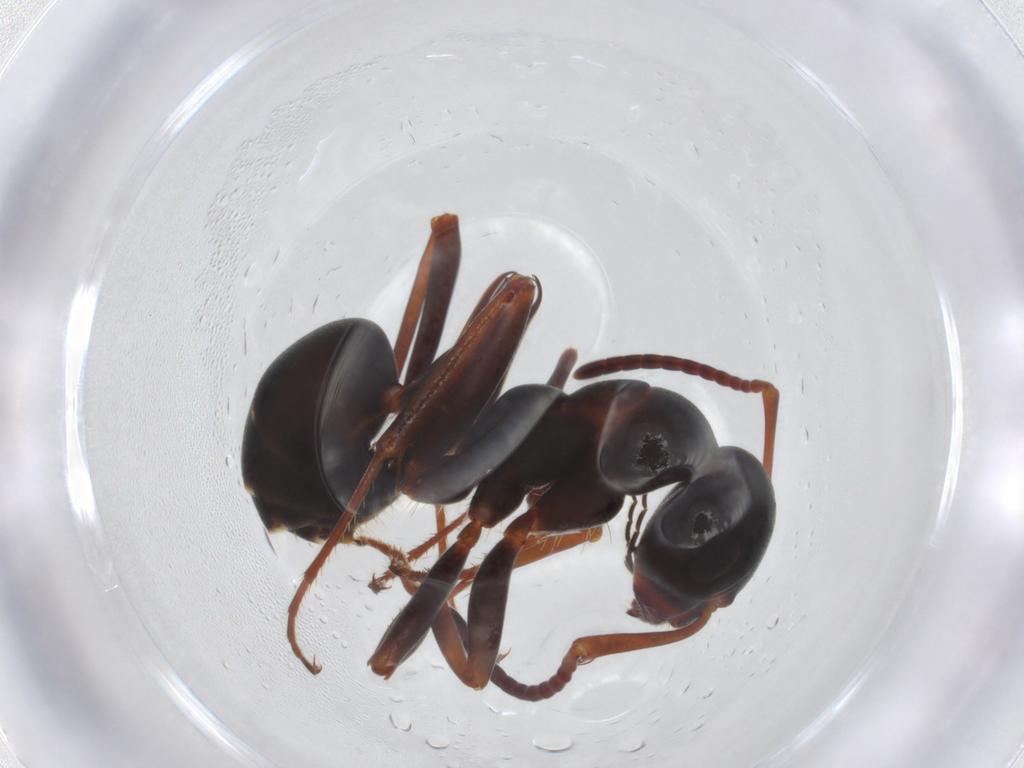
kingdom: Animalia
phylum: Arthropoda
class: Insecta
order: Hymenoptera
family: Formicidae
